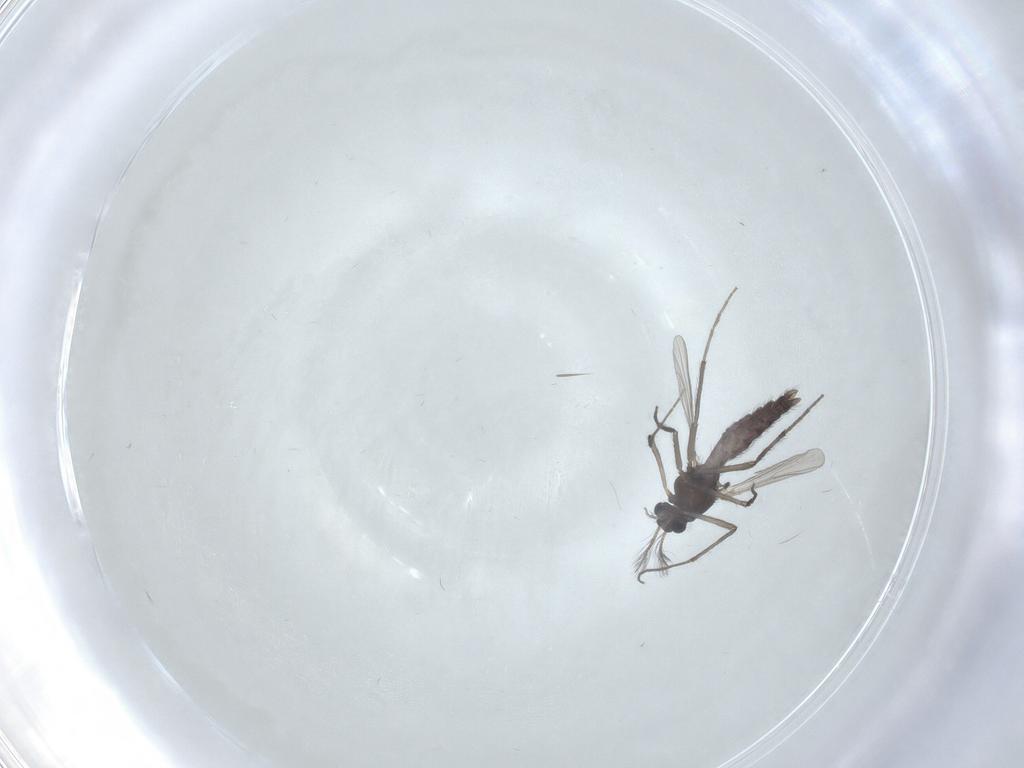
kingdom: Animalia
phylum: Arthropoda
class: Insecta
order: Diptera
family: Chironomidae
